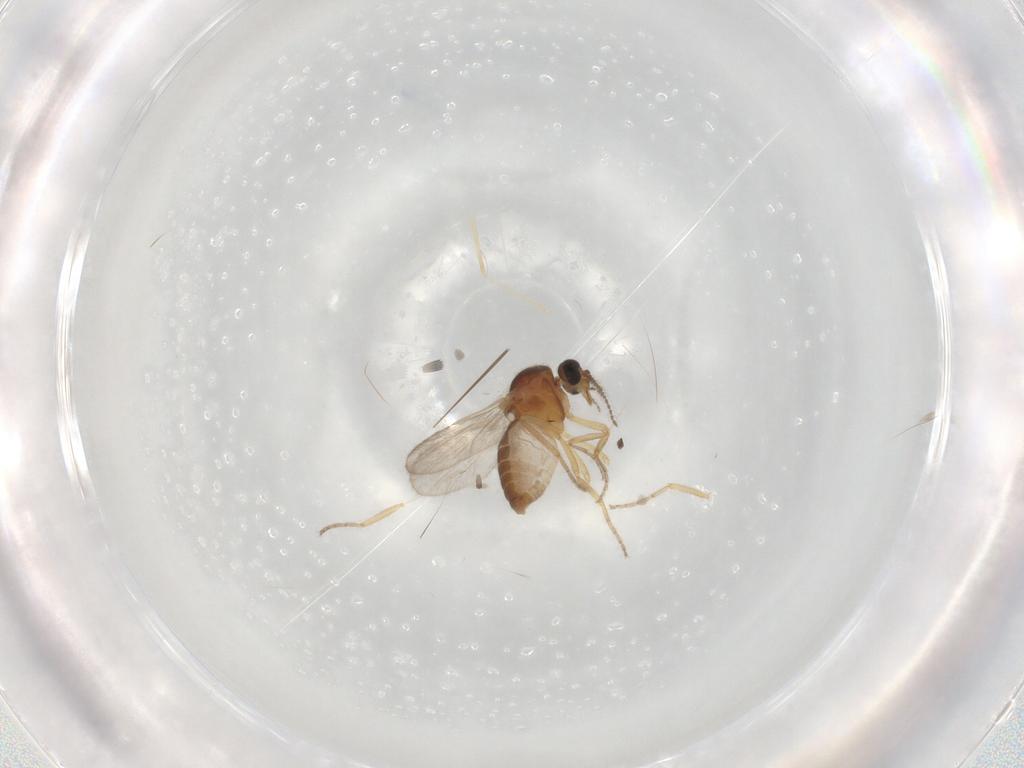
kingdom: Animalia
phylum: Arthropoda
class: Insecta
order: Diptera
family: Ceratopogonidae
